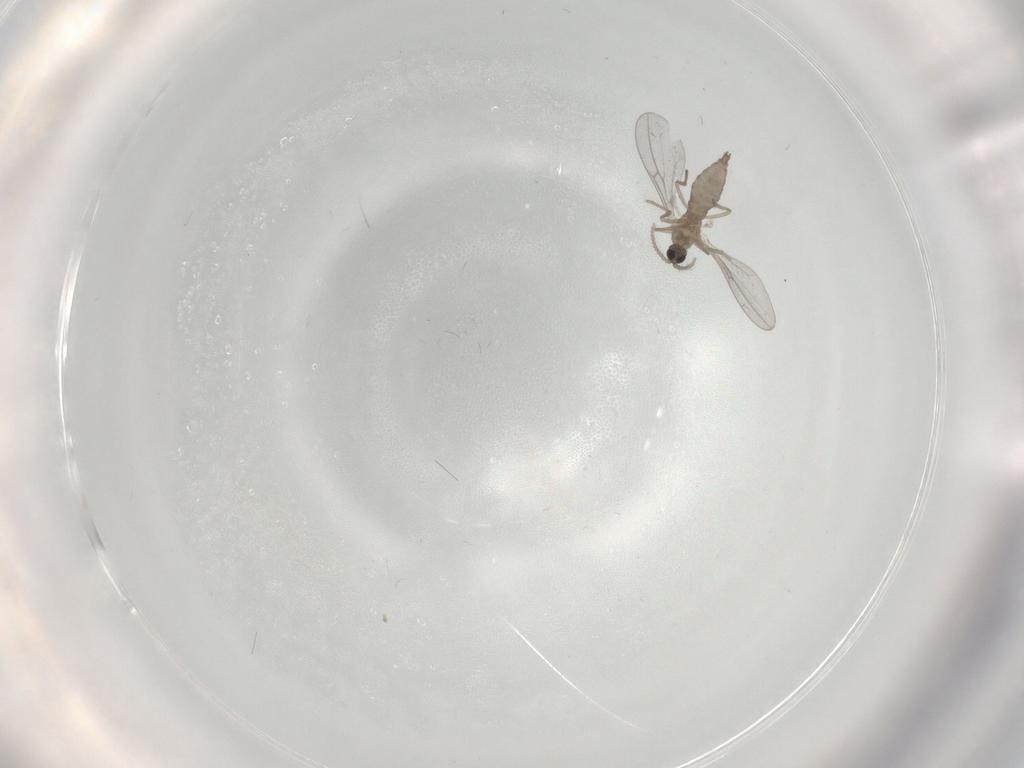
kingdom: Animalia
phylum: Arthropoda
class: Insecta
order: Diptera
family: Cecidomyiidae
